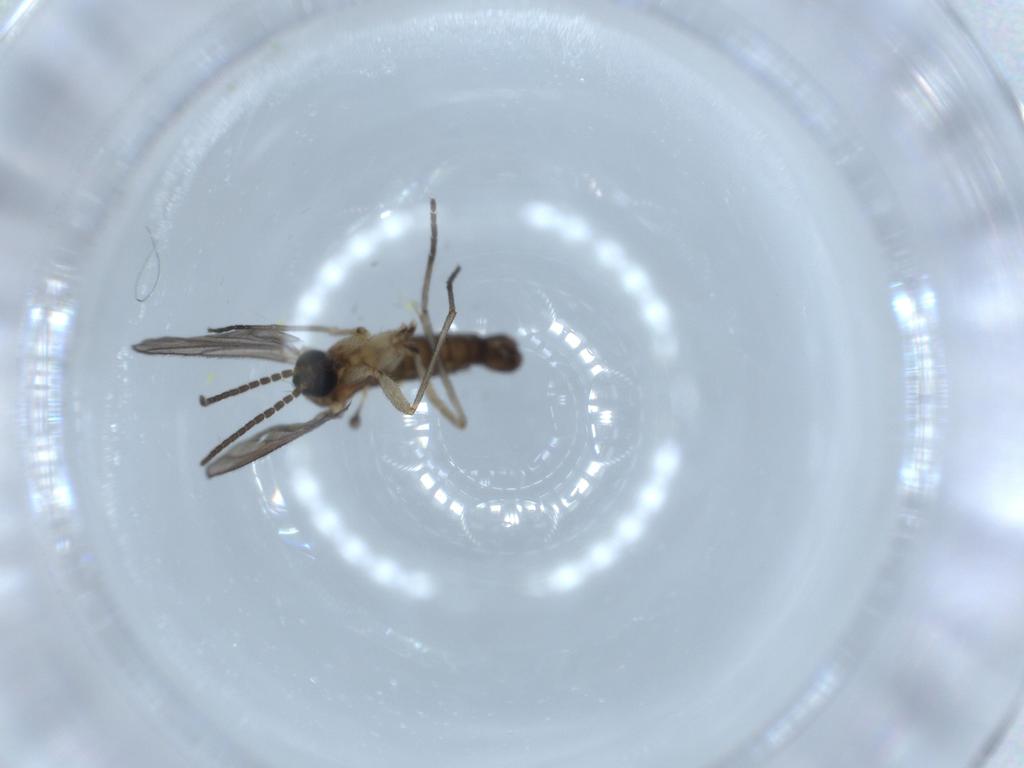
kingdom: Animalia
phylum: Arthropoda
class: Insecta
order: Diptera
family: Sciaridae
